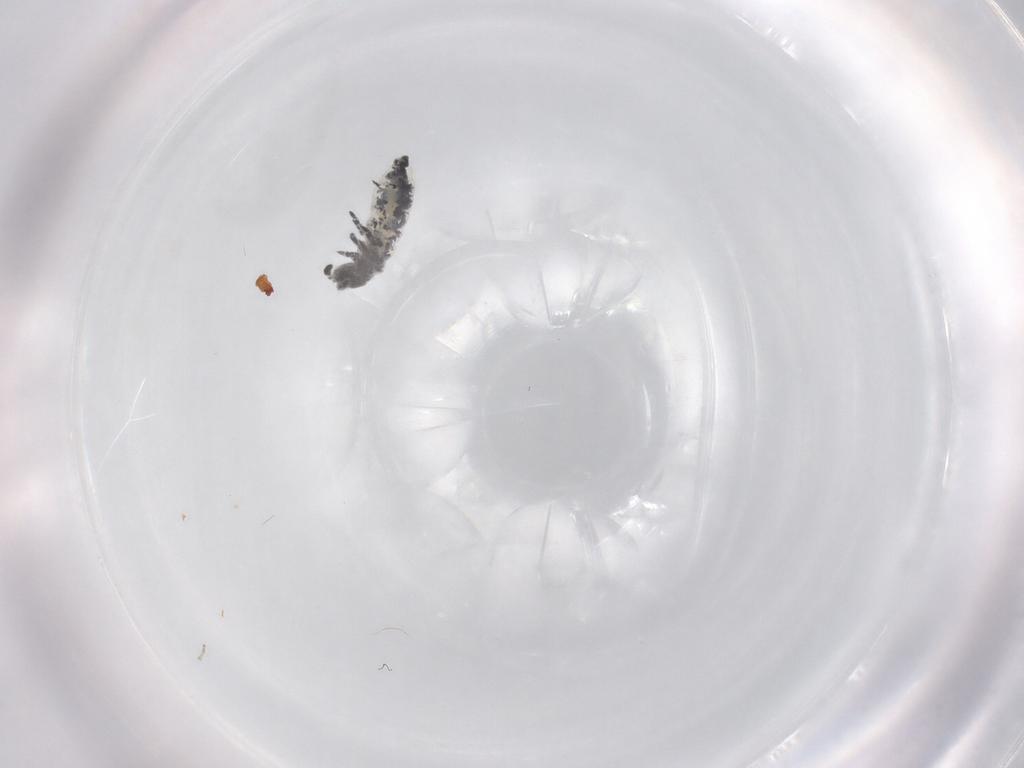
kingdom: Animalia
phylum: Arthropoda
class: Collembola
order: Poduromorpha
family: Hypogastruridae
